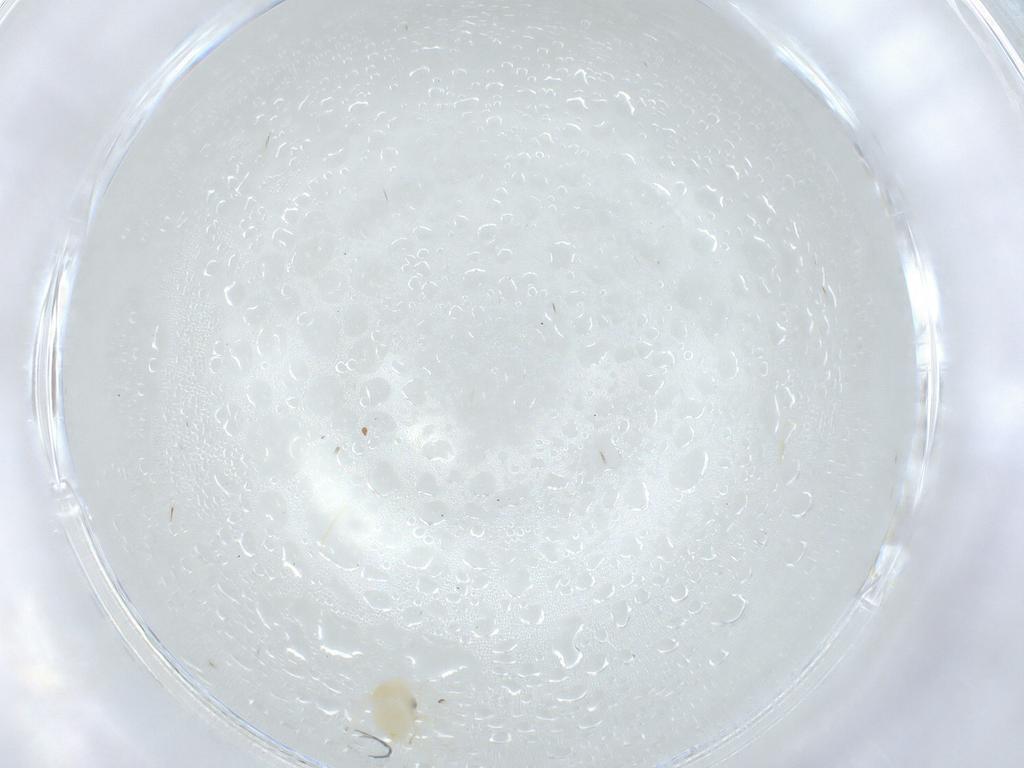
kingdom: Animalia
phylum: Arthropoda
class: Insecta
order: Hemiptera
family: Aleyrodidae
